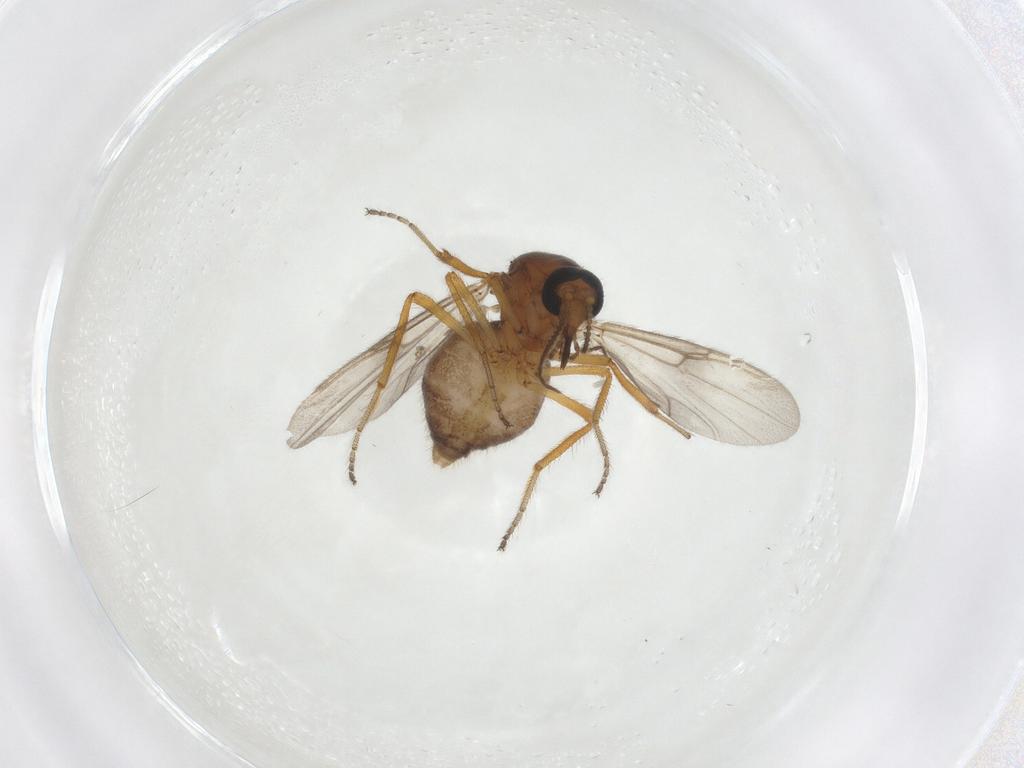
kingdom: Animalia
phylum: Arthropoda
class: Insecta
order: Diptera
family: Ceratopogonidae
